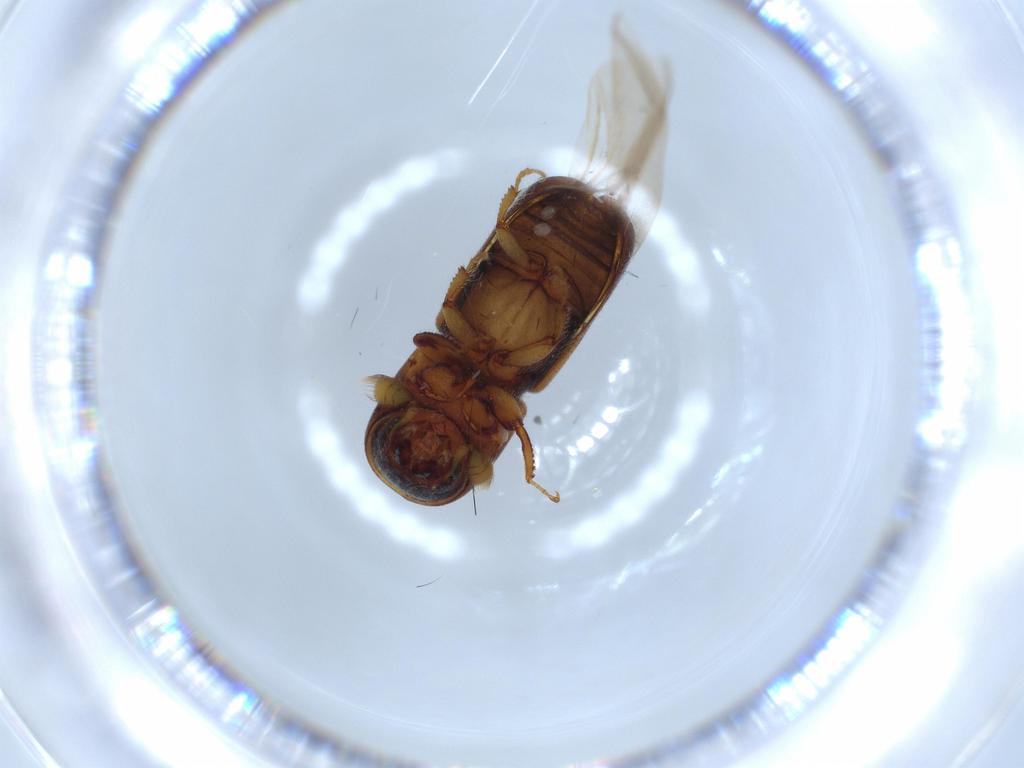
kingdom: Animalia
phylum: Arthropoda
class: Insecta
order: Coleoptera
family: Curculionidae
